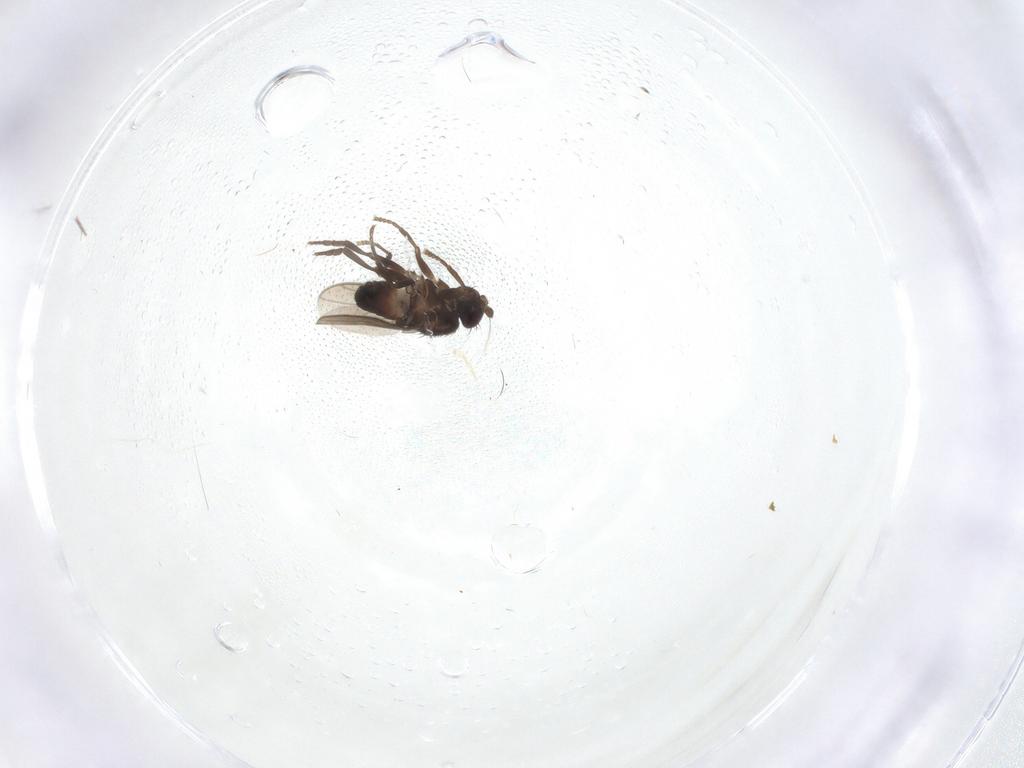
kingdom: Animalia
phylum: Arthropoda
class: Insecta
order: Diptera
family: Sphaeroceridae
